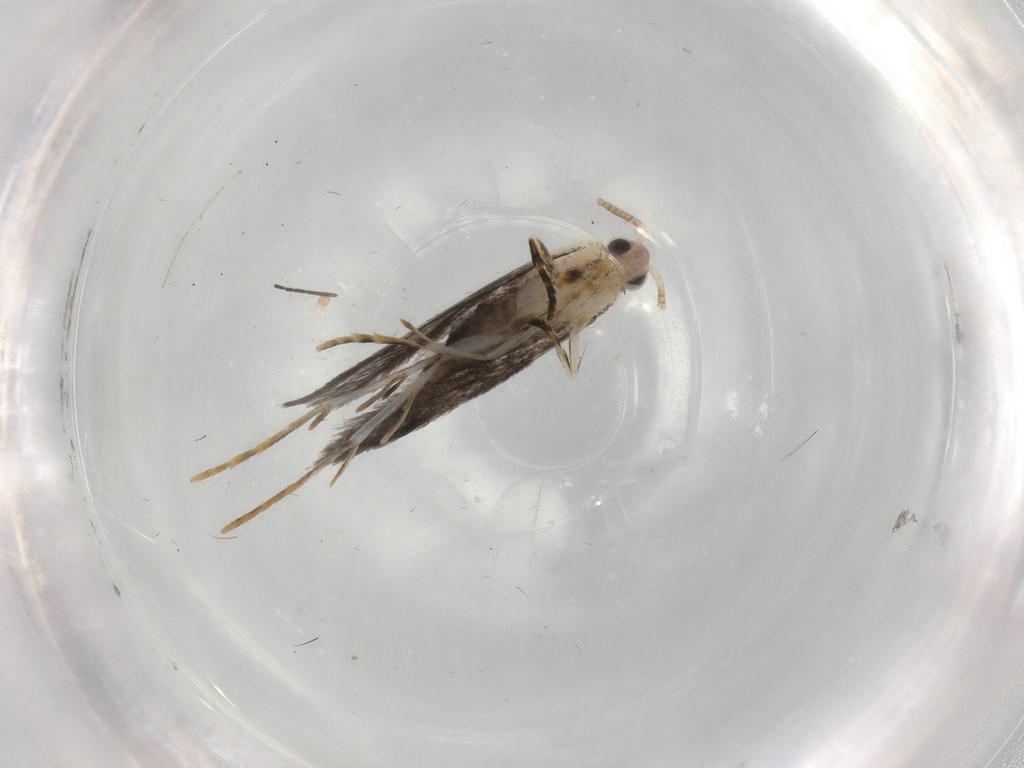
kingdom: Animalia
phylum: Arthropoda
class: Insecta
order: Lepidoptera
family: Tineidae
